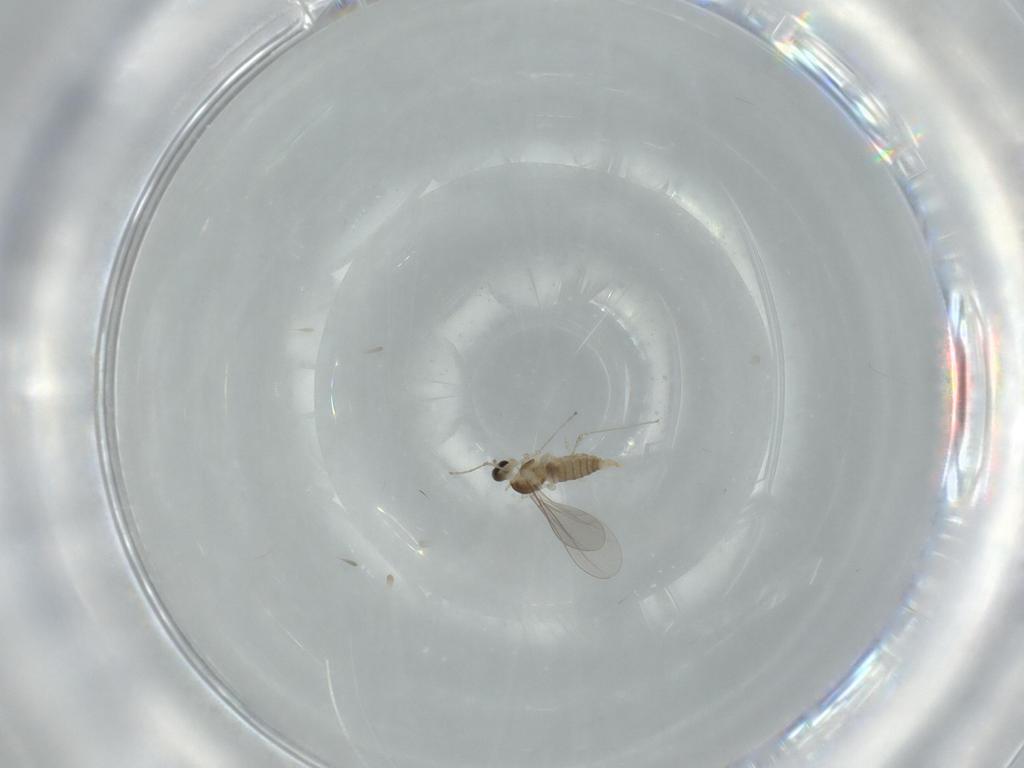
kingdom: Animalia
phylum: Arthropoda
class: Insecta
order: Diptera
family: Cecidomyiidae
